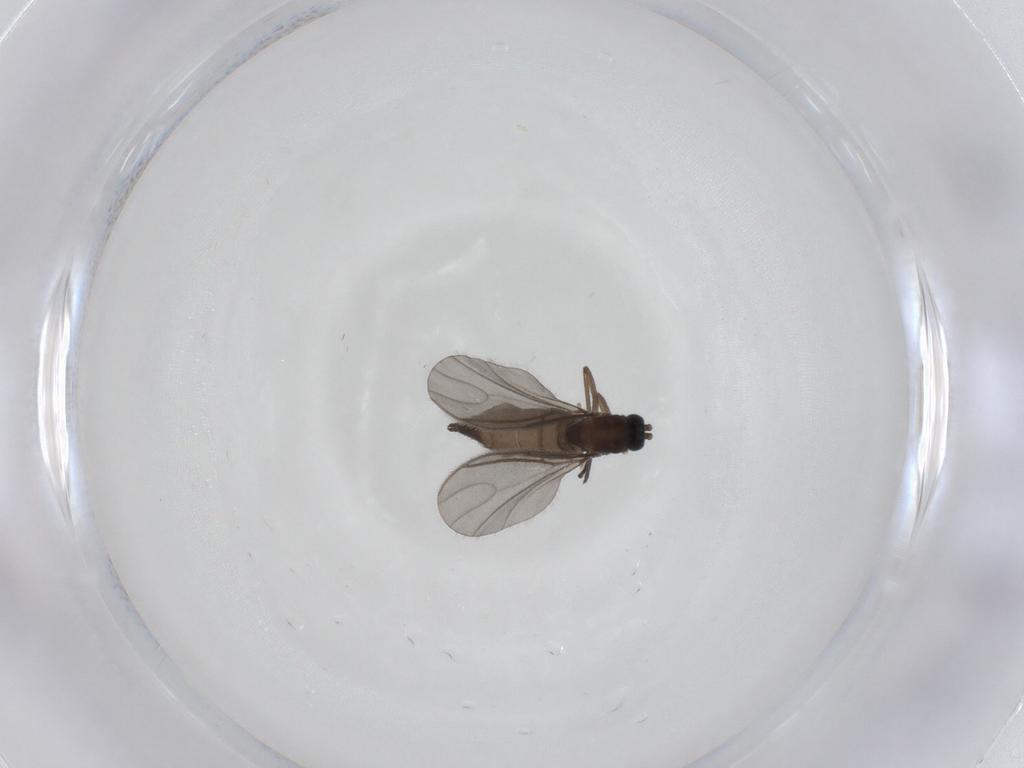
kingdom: Animalia
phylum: Arthropoda
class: Insecta
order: Diptera
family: Sciaridae
